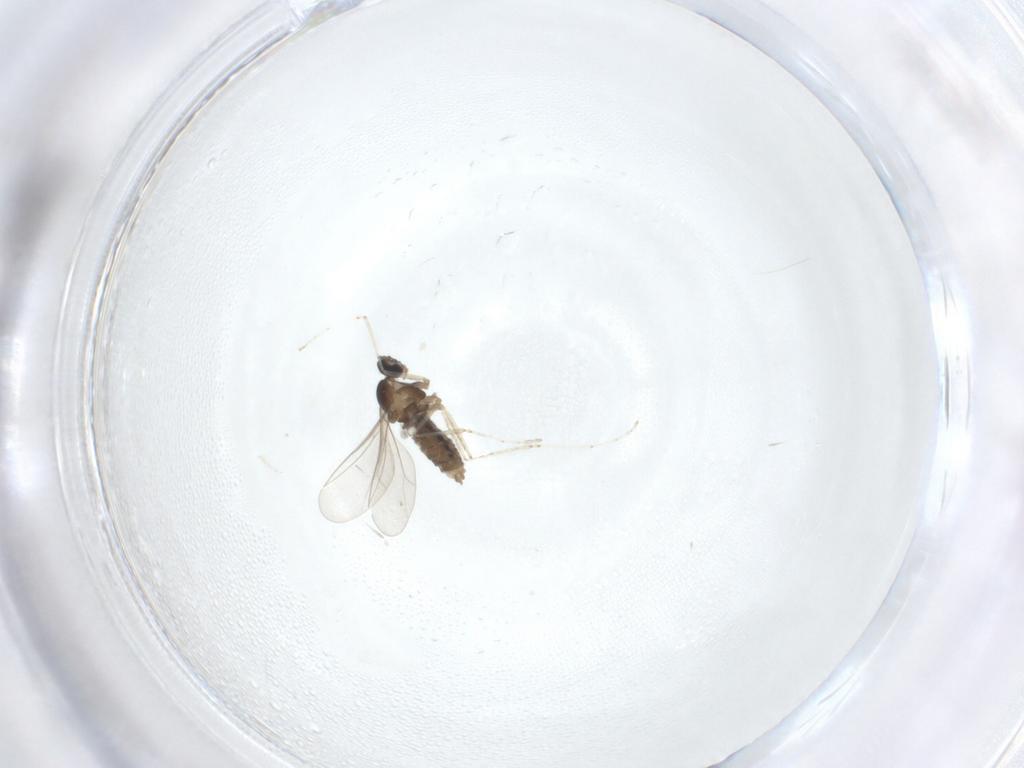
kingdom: Animalia
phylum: Arthropoda
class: Insecta
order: Diptera
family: Cecidomyiidae
